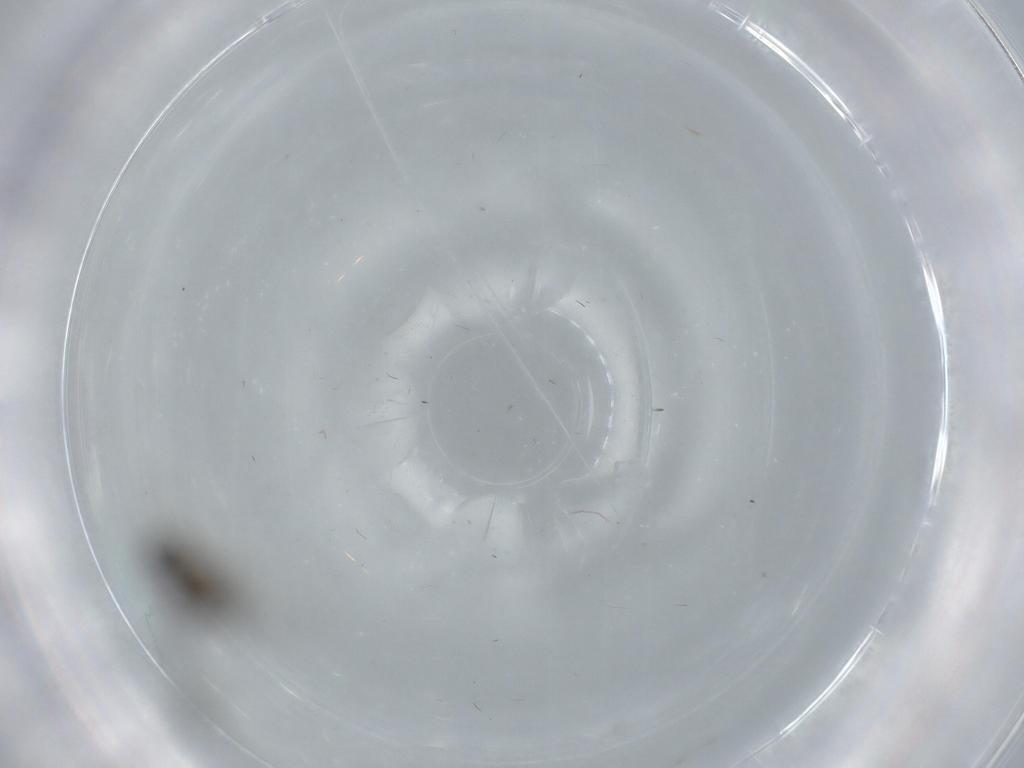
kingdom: Animalia
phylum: Arthropoda
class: Insecta
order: Diptera
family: Cecidomyiidae
